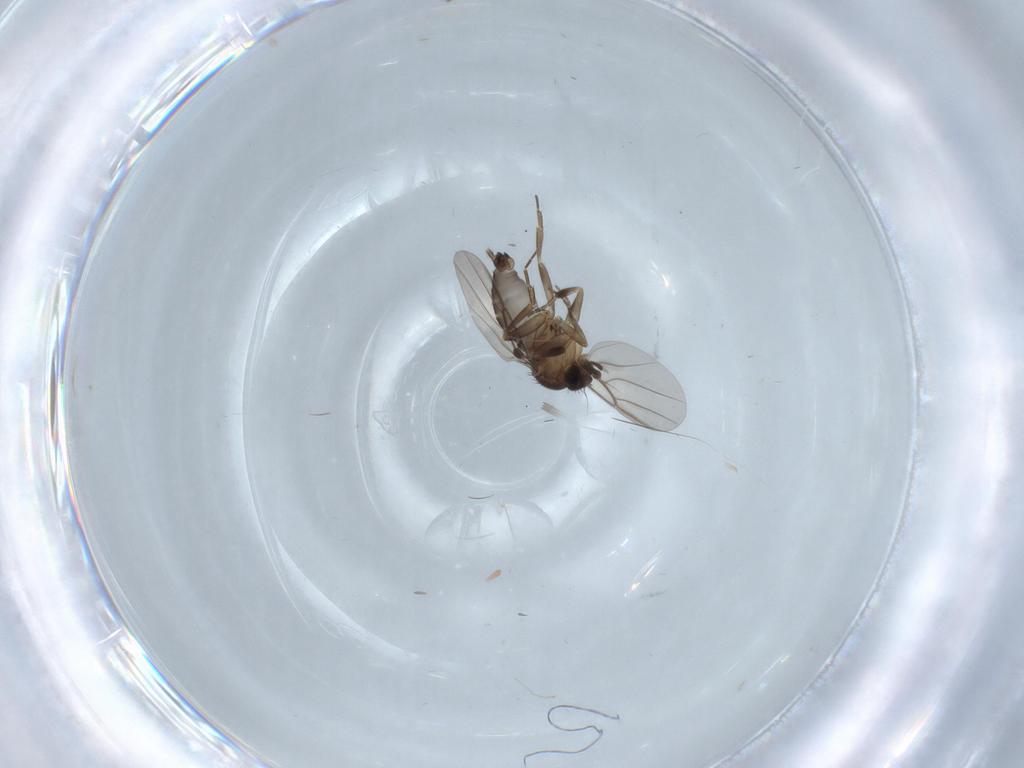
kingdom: Animalia
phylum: Arthropoda
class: Insecta
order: Diptera
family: Phoridae
